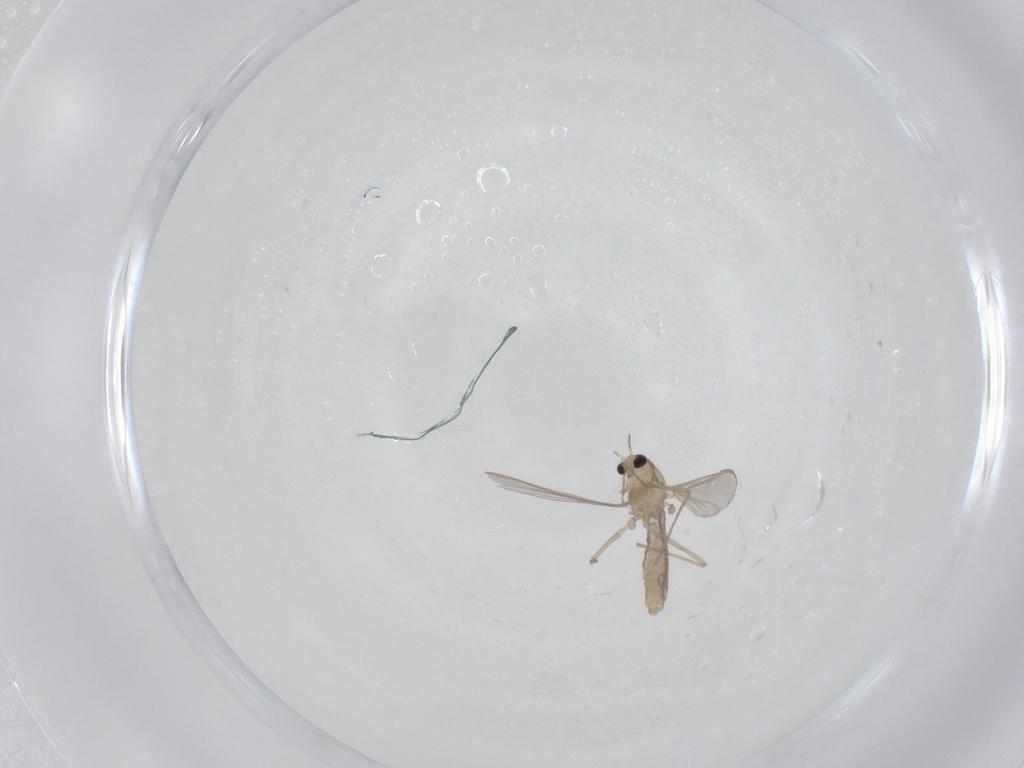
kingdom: Animalia
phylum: Arthropoda
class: Insecta
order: Diptera
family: Chironomidae
